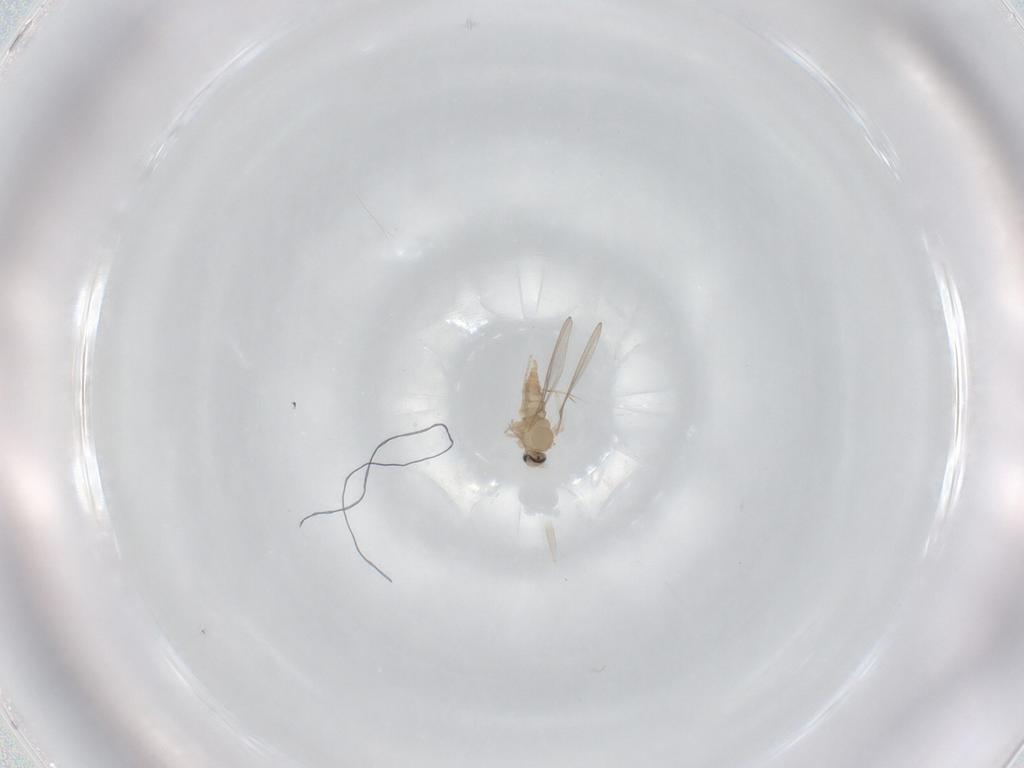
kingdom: Animalia
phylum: Arthropoda
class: Insecta
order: Diptera
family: Cecidomyiidae
